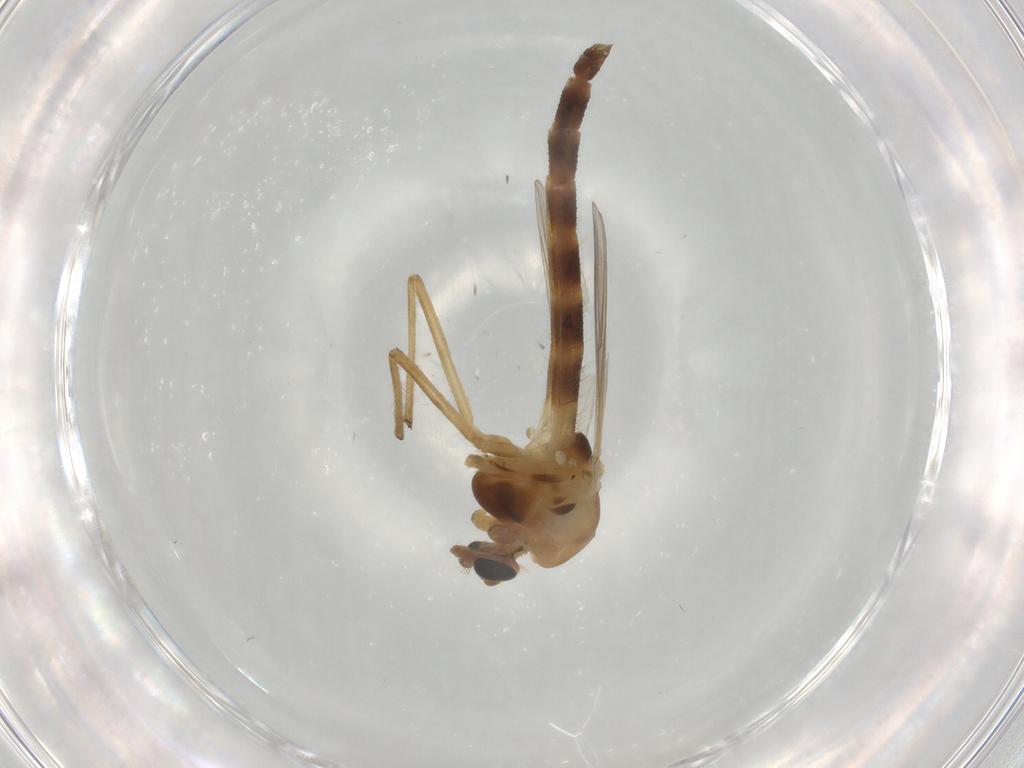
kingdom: Animalia
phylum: Arthropoda
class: Insecta
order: Diptera
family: Chironomidae
